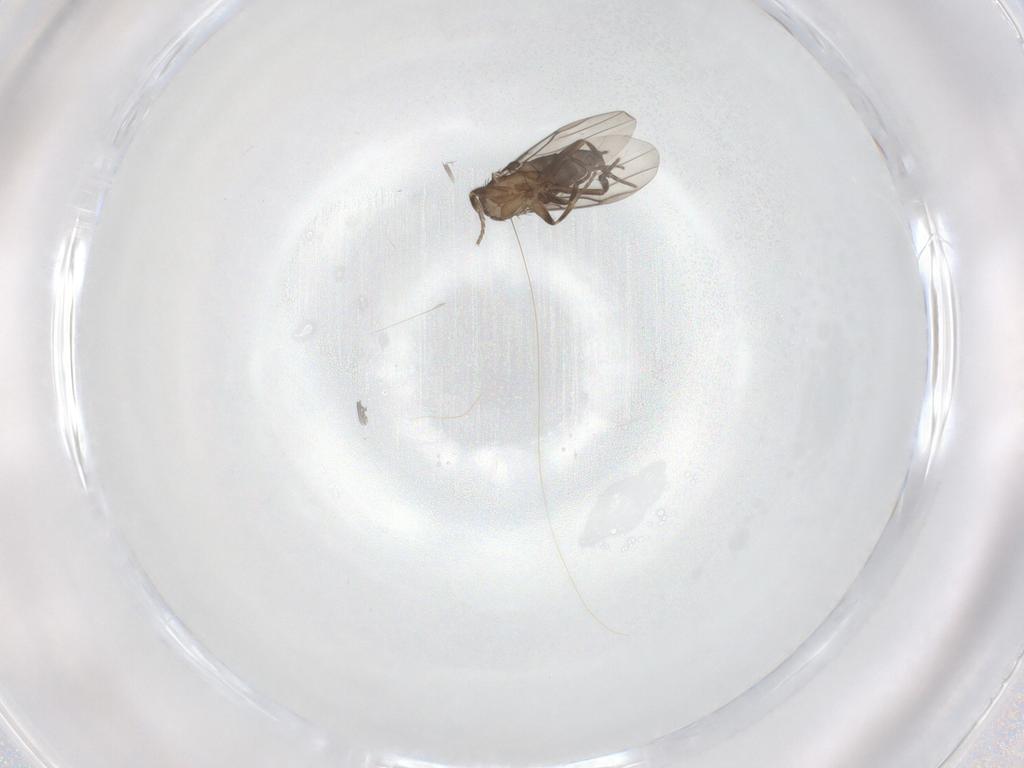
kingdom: Animalia
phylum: Arthropoda
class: Insecta
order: Diptera
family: Phoridae
